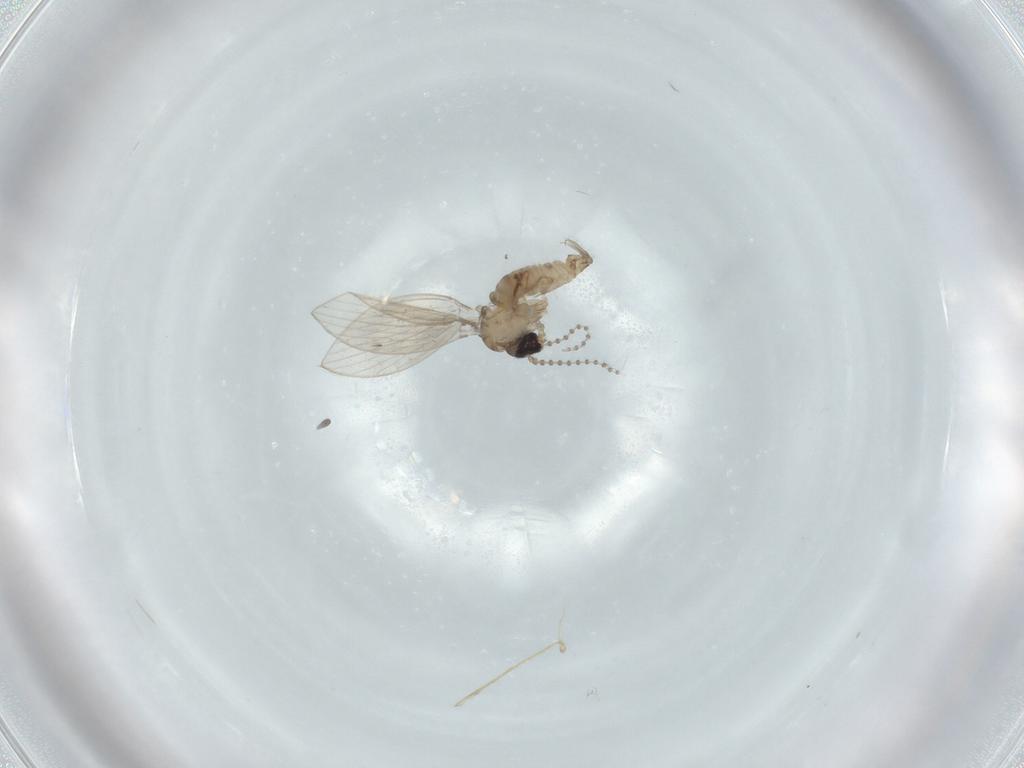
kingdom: Animalia
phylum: Arthropoda
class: Insecta
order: Diptera
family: Psychodidae
